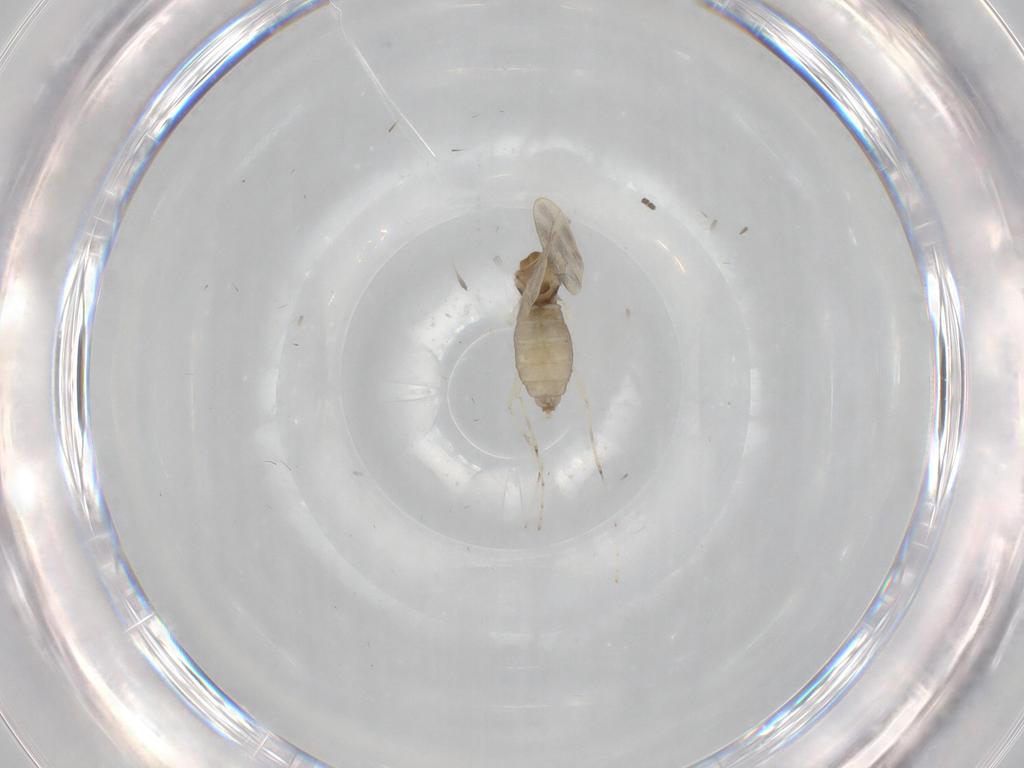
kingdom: Animalia
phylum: Arthropoda
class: Insecta
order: Diptera
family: Cecidomyiidae
